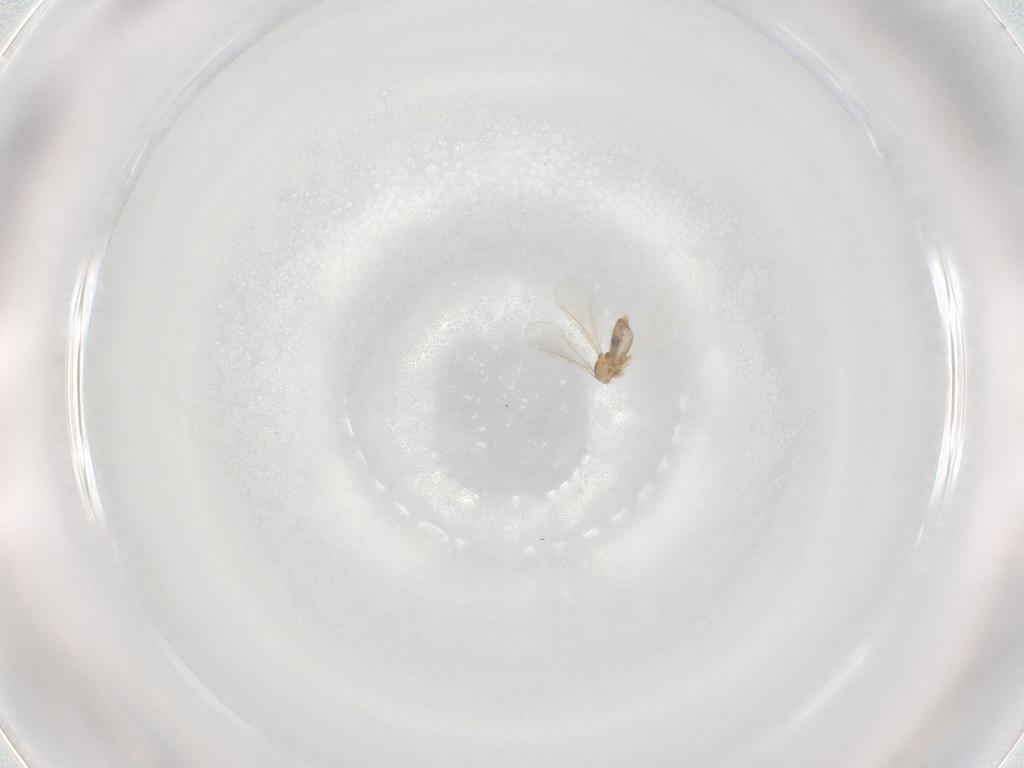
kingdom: Animalia
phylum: Arthropoda
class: Insecta
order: Diptera
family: Cecidomyiidae
